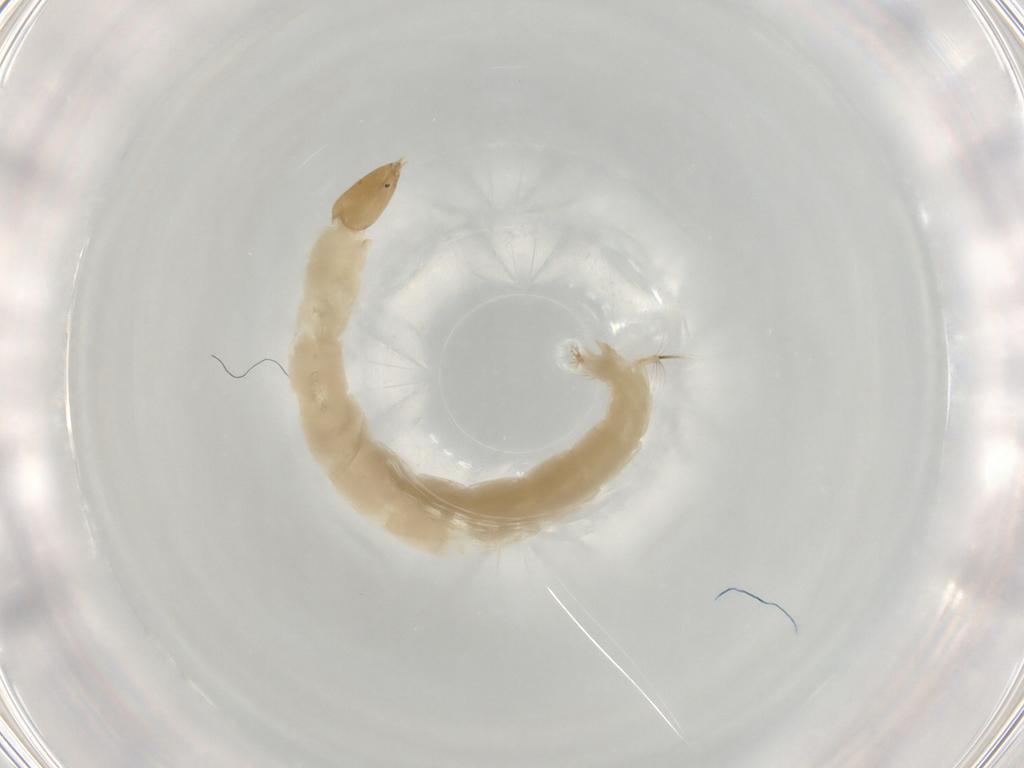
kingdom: Animalia
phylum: Arthropoda
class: Insecta
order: Diptera
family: Chironomidae
